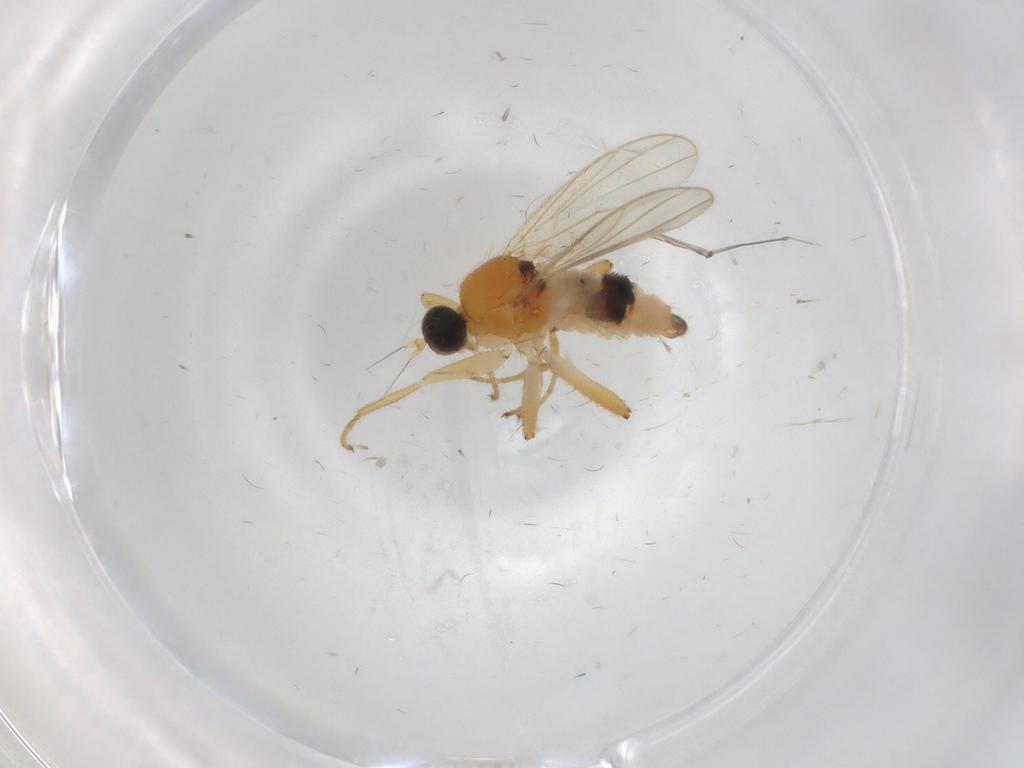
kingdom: Animalia
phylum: Arthropoda
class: Insecta
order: Diptera
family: Hybotidae
